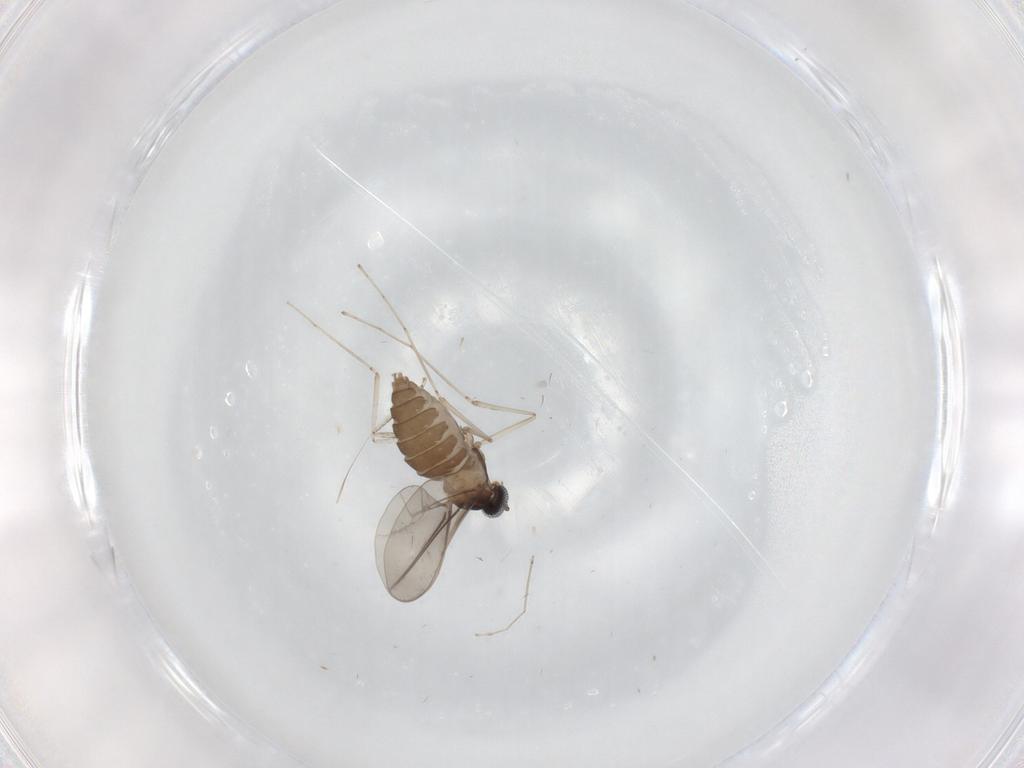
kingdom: Animalia
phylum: Arthropoda
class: Insecta
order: Diptera
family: Cecidomyiidae
